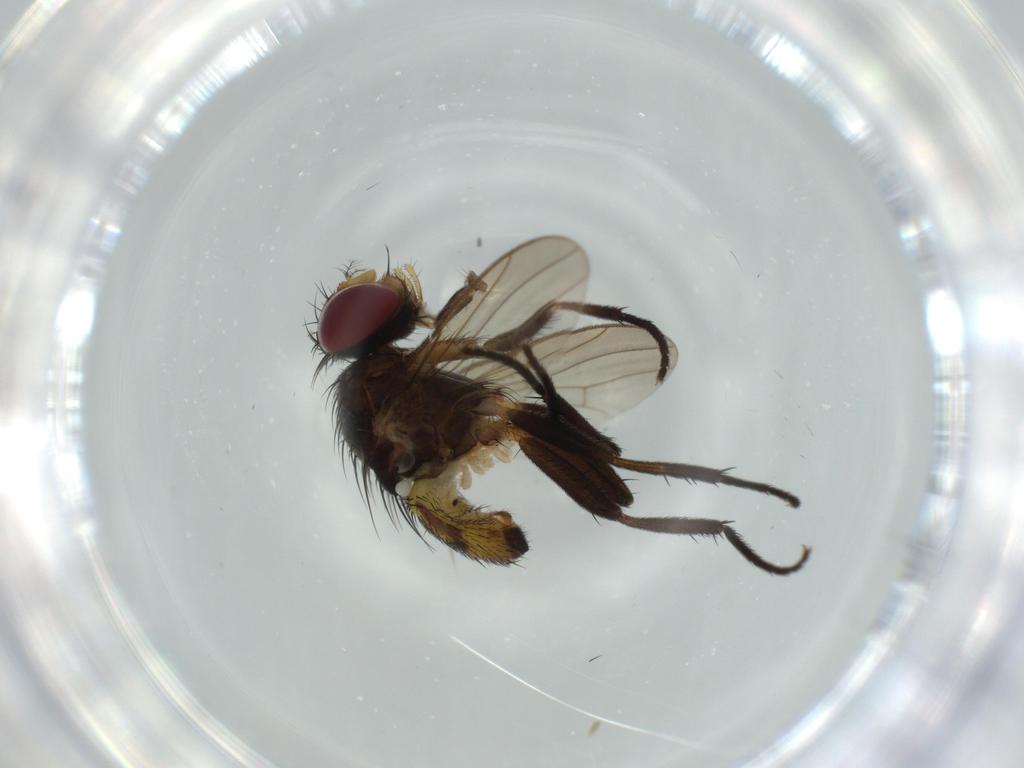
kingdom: Animalia
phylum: Arthropoda
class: Insecta
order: Diptera
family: Anthomyiidae
